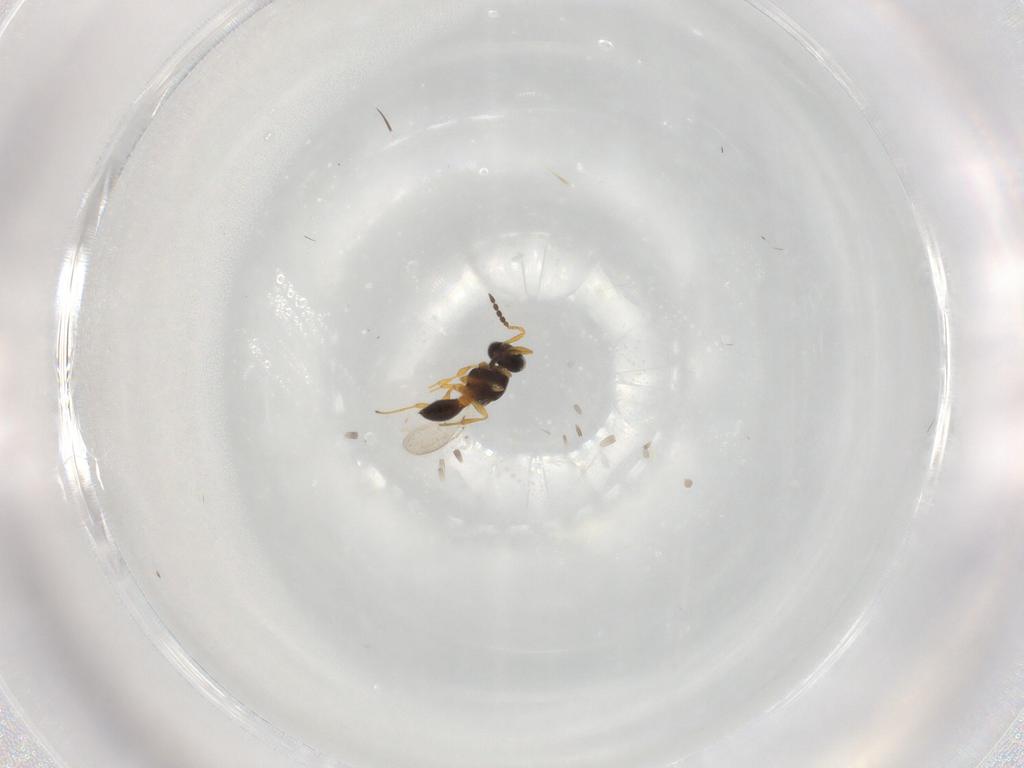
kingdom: Animalia
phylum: Arthropoda
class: Insecta
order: Hymenoptera
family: Platygastridae
